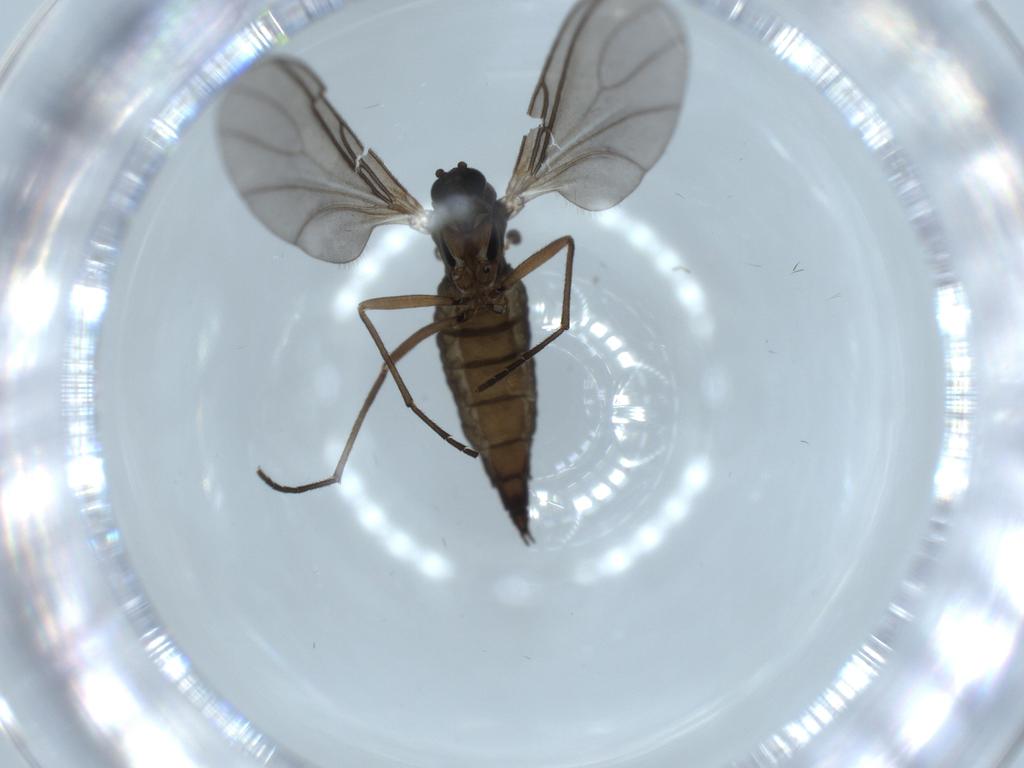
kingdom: Animalia
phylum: Arthropoda
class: Insecta
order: Diptera
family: Sciaridae
